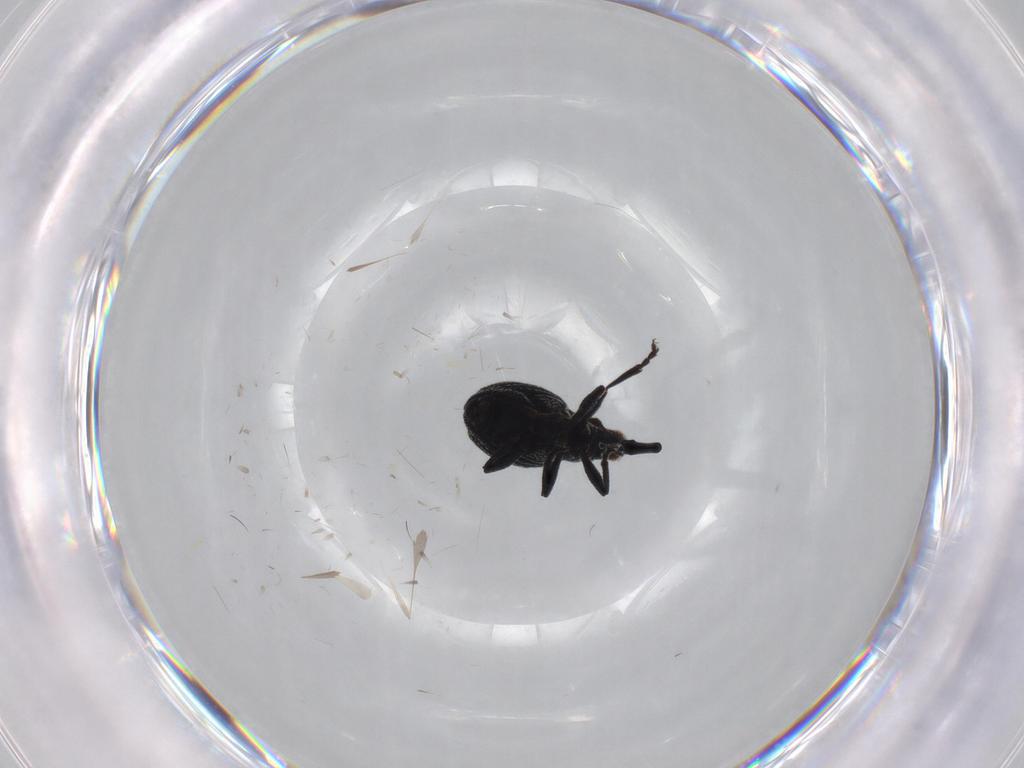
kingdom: Animalia
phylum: Arthropoda
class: Insecta
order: Coleoptera
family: Brentidae
